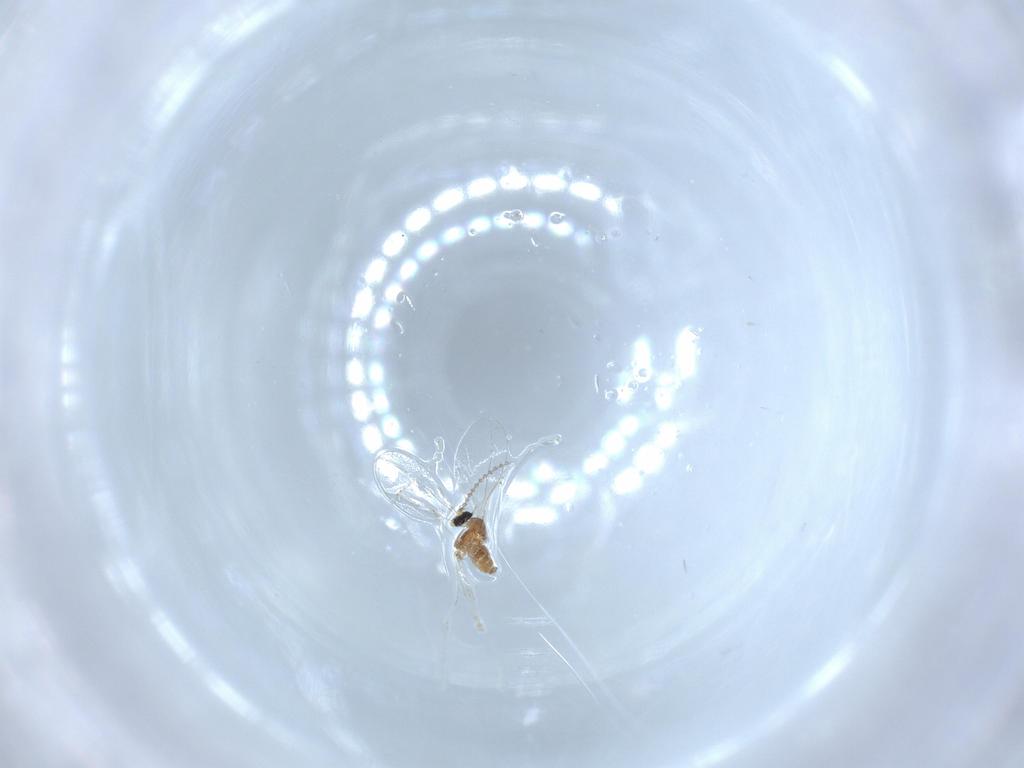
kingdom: Animalia
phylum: Arthropoda
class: Insecta
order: Diptera
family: Cecidomyiidae
